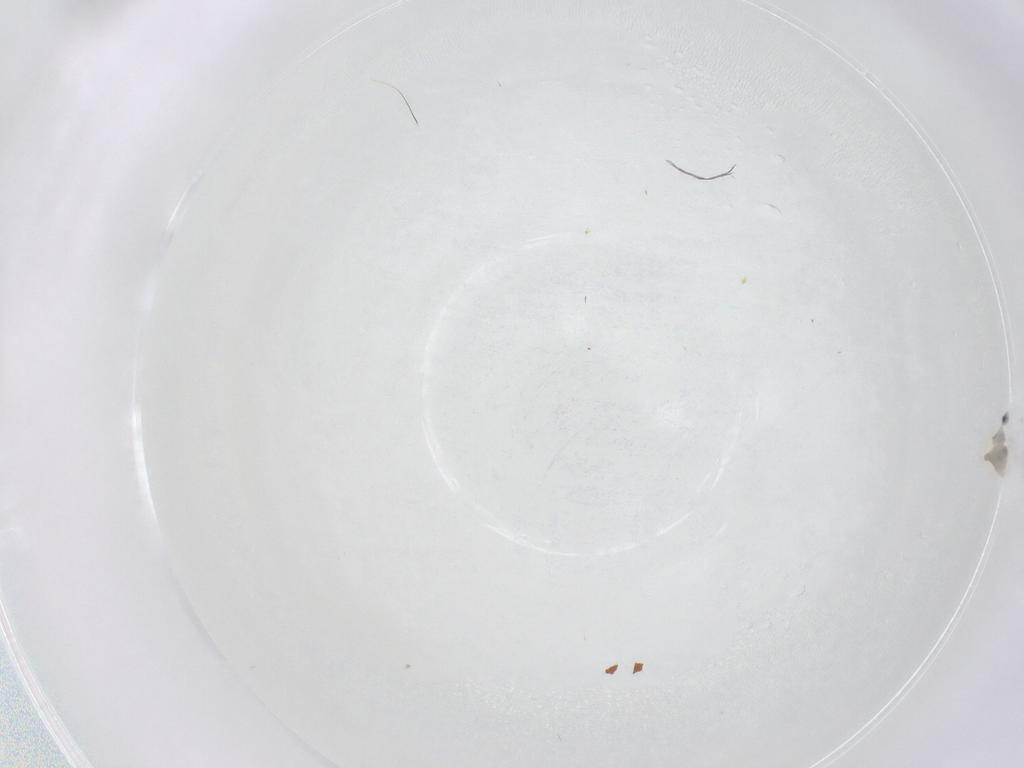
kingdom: Animalia
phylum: Arthropoda
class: Insecta
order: Diptera
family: Cecidomyiidae
